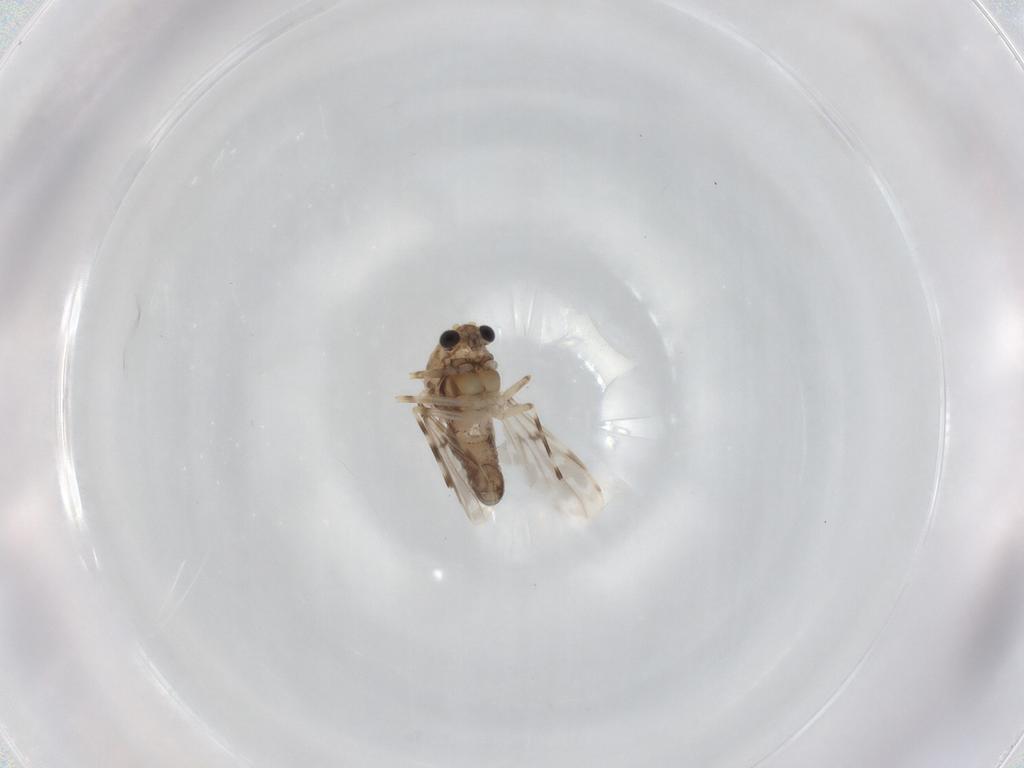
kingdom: Animalia
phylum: Arthropoda
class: Insecta
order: Diptera
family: Chironomidae
